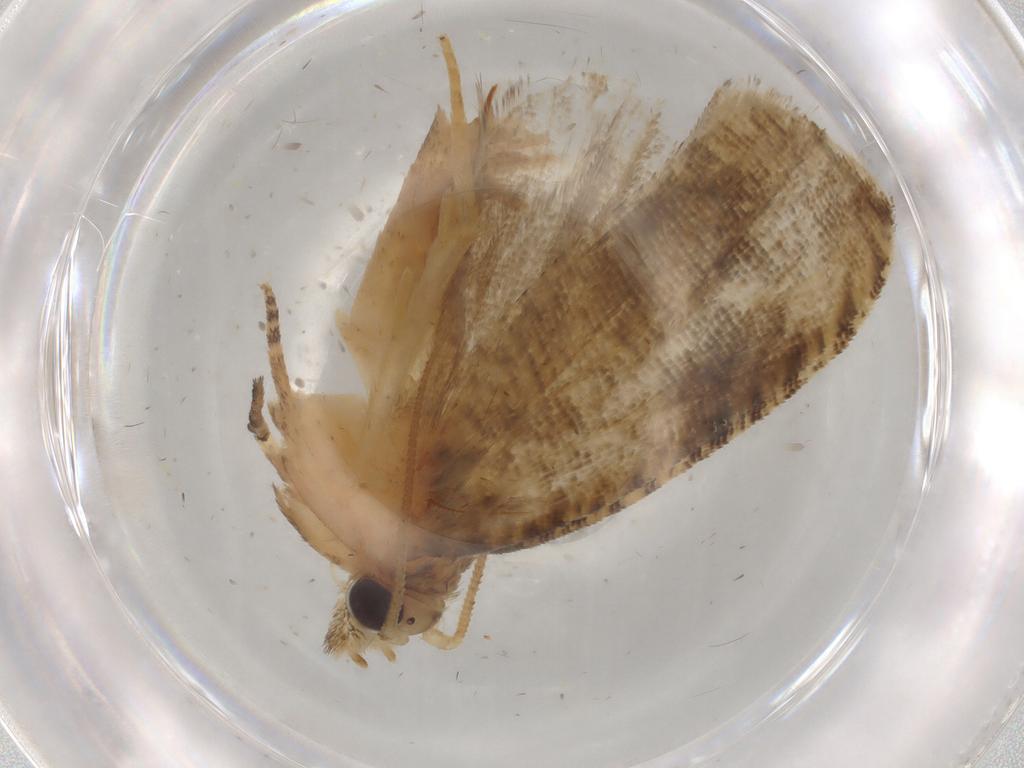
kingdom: Animalia
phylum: Arthropoda
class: Insecta
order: Lepidoptera
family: Tortricidae
